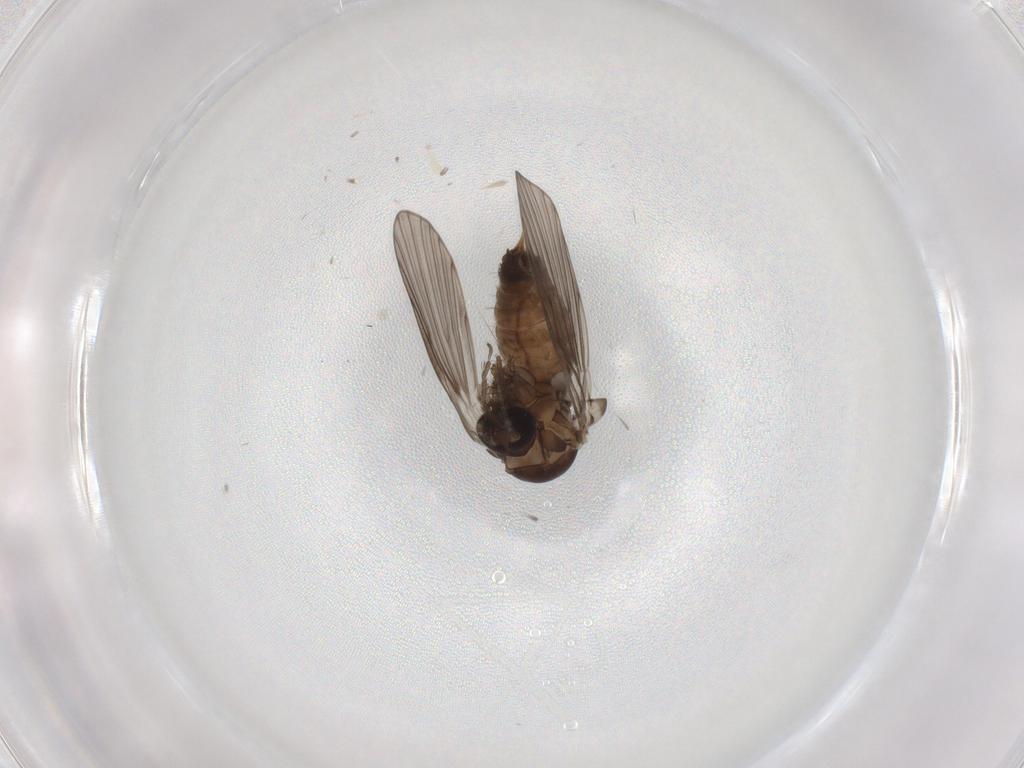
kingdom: Animalia
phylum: Arthropoda
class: Insecta
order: Diptera
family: Psychodidae
